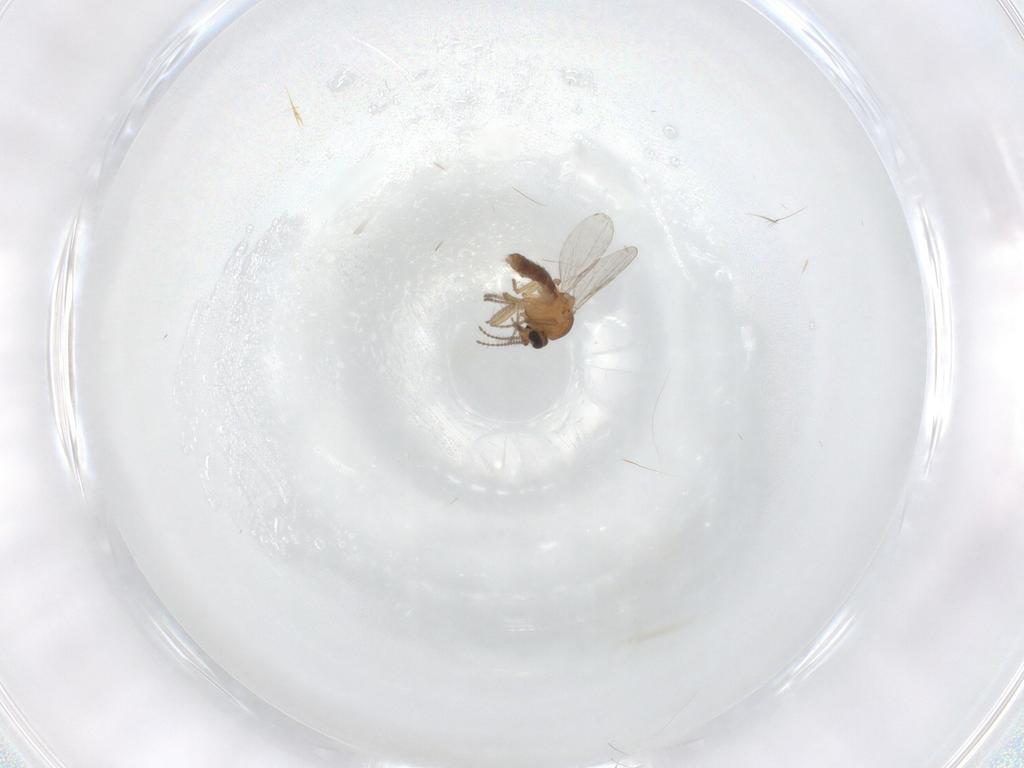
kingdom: Animalia
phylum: Arthropoda
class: Insecta
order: Diptera
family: Ceratopogonidae
